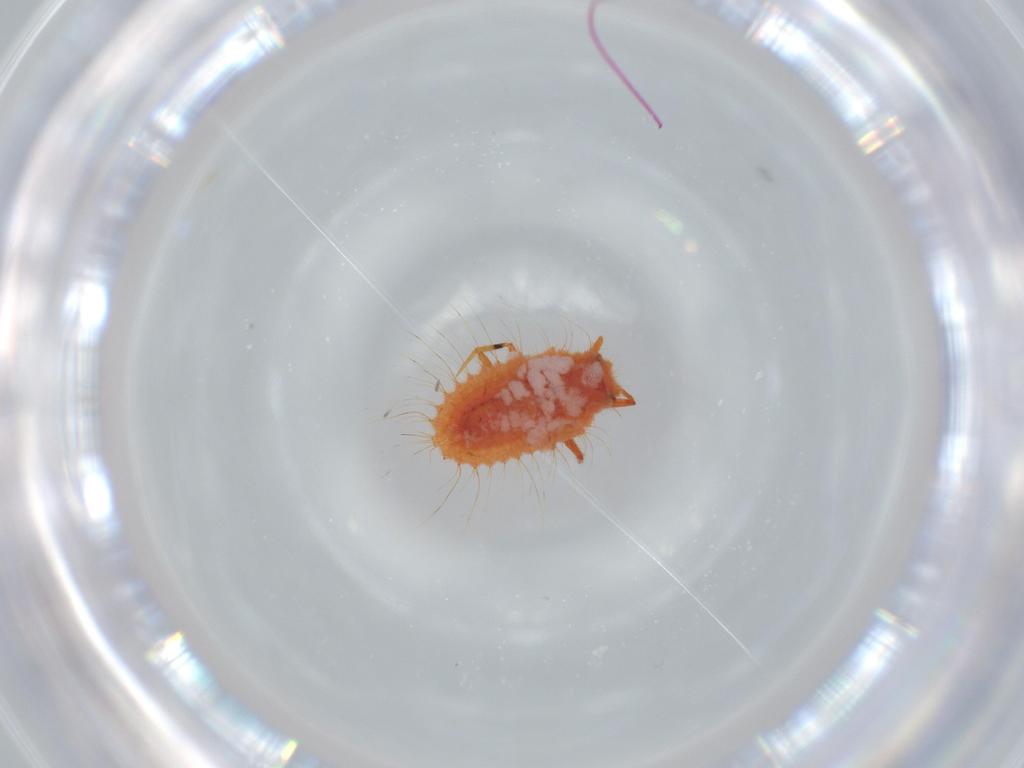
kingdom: Animalia
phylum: Arthropoda
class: Insecta
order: Hemiptera
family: Coccoidea_incertae_sedis
